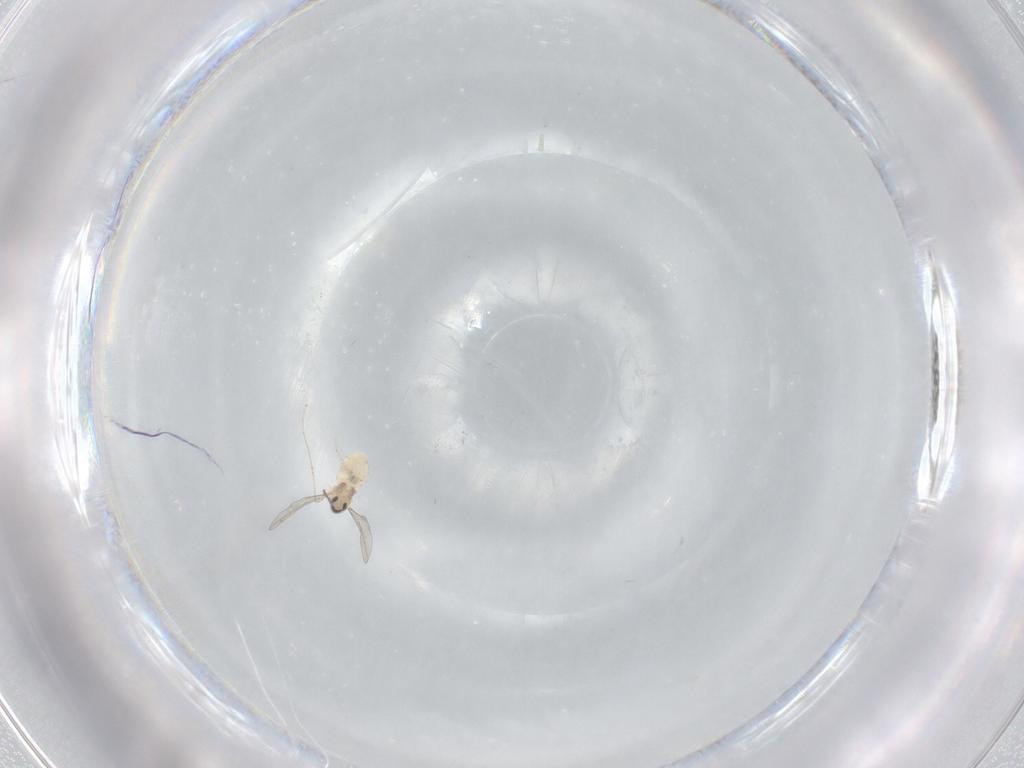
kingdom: Animalia
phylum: Arthropoda
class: Insecta
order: Diptera
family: Cecidomyiidae
